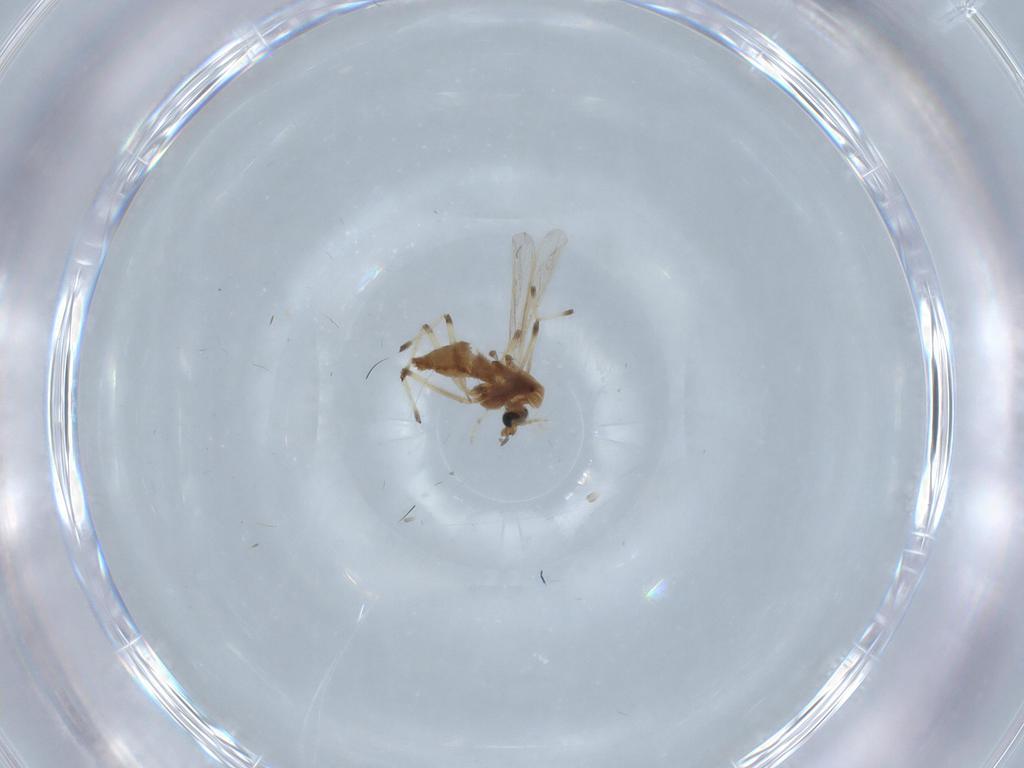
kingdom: Animalia
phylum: Arthropoda
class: Insecta
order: Diptera
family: Chironomidae
